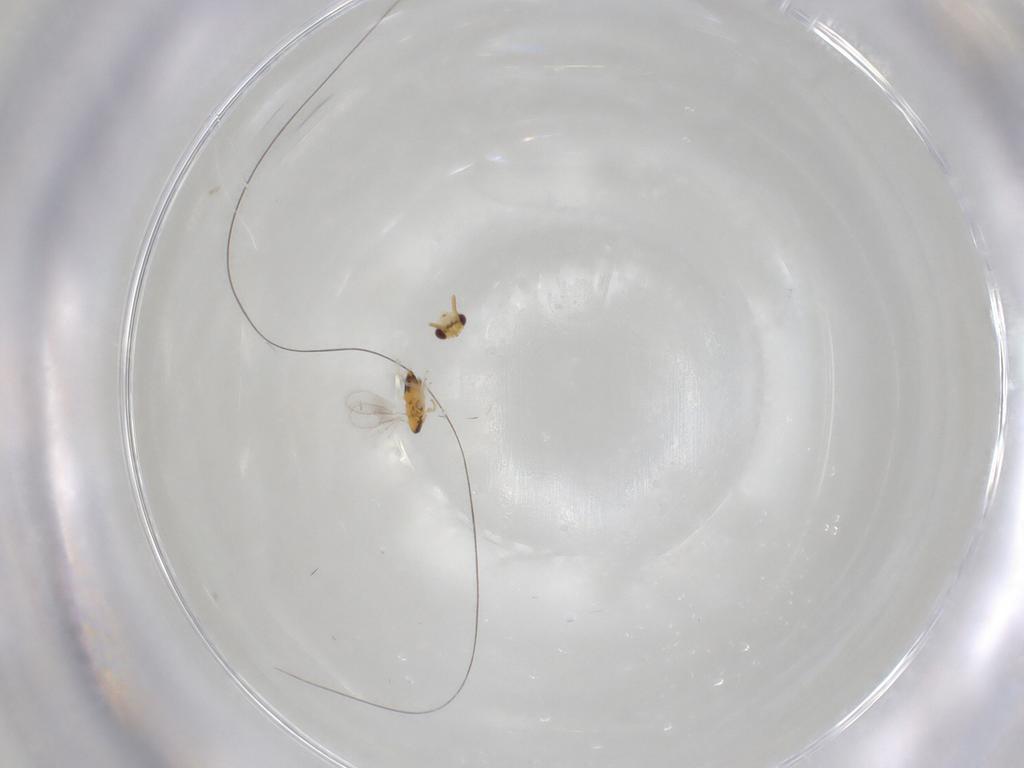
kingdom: Animalia
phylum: Arthropoda
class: Insecta
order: Hymenoptera
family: Aphelinidae
